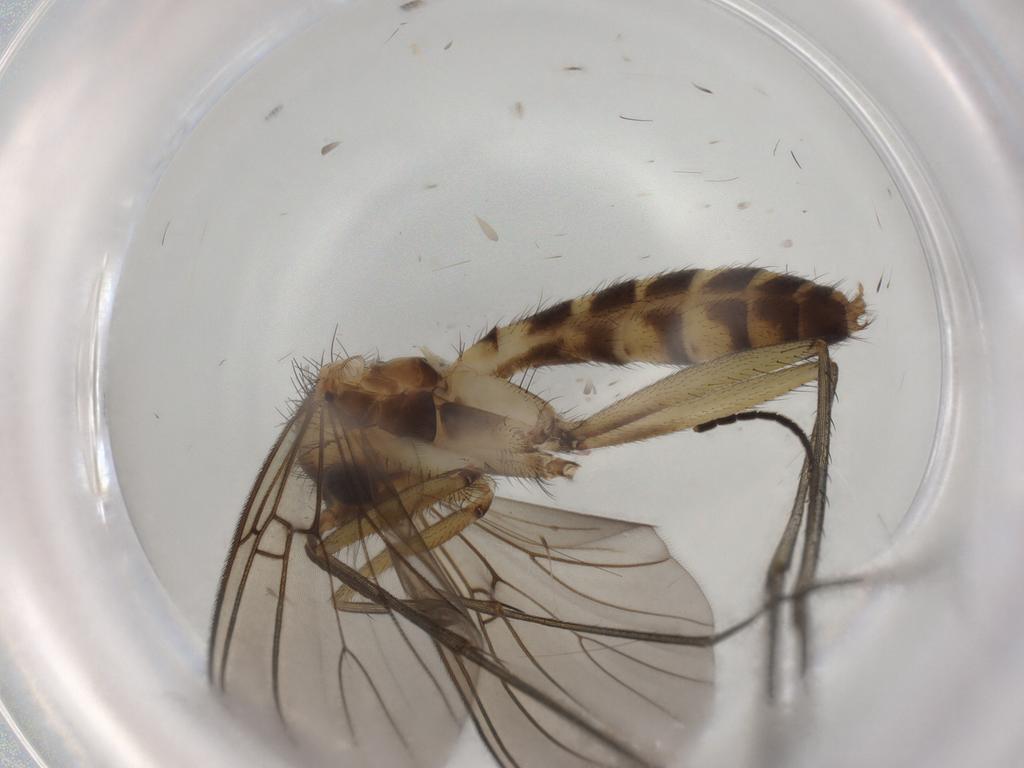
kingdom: Animalia
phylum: Arthropoda
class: Insecta
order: Diptera
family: Mycetophilidae
